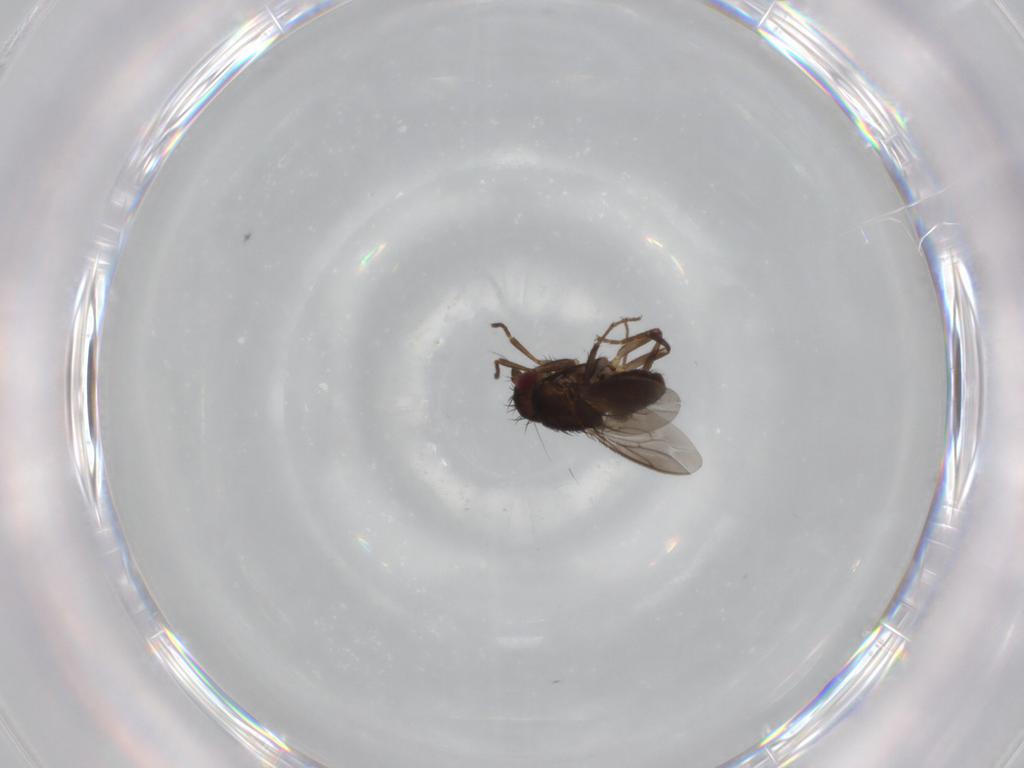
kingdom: Animalia
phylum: Arthropoda
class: Insecta
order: Diptera
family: Sphaeroceridae
